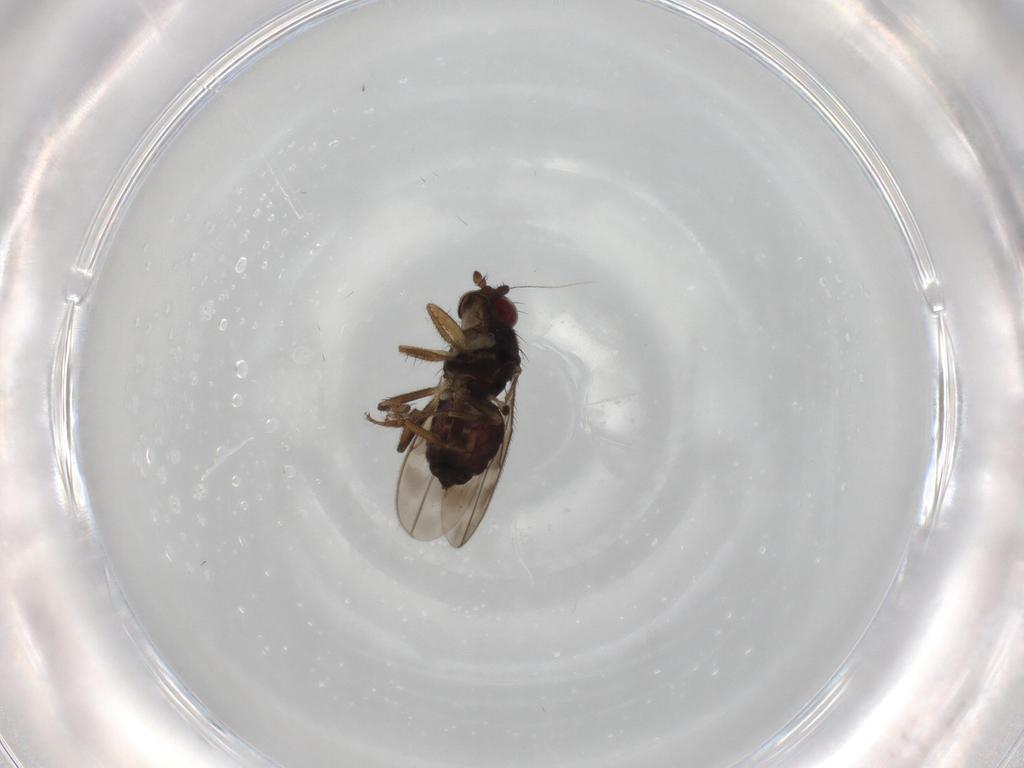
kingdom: Animalia
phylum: Arthropoda
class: Insecta
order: Diptera
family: Sphaeroceridae
